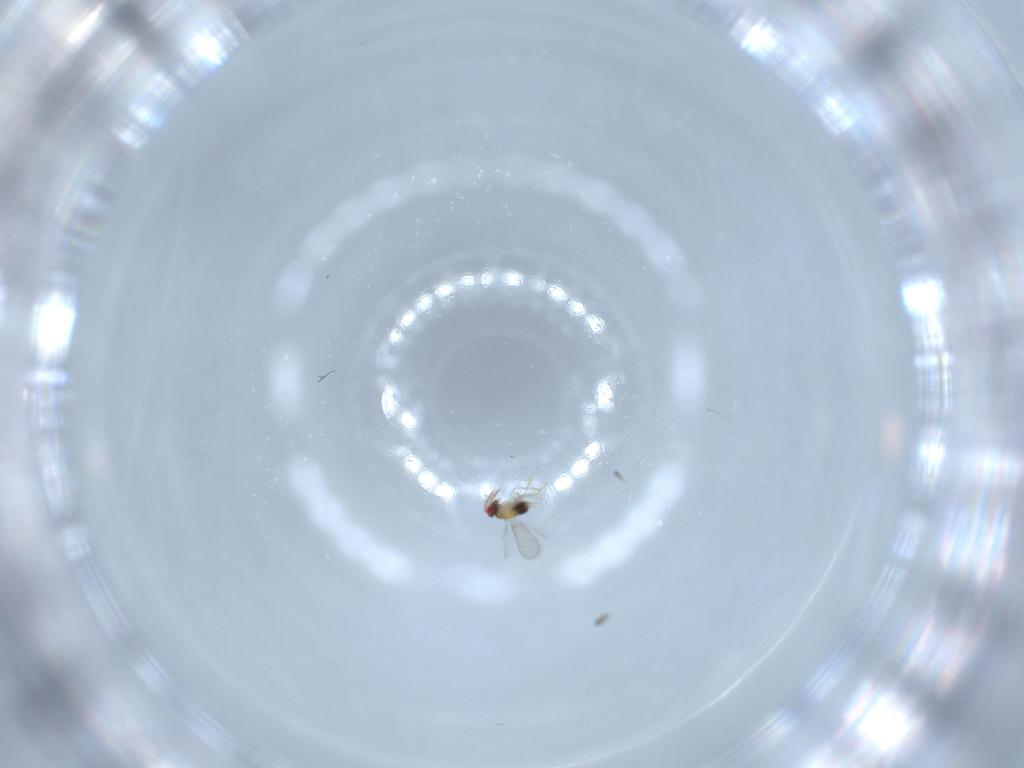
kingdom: Animalia
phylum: Arthropoda
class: Insecta
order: Hymenoptera
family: Aphelinidae
